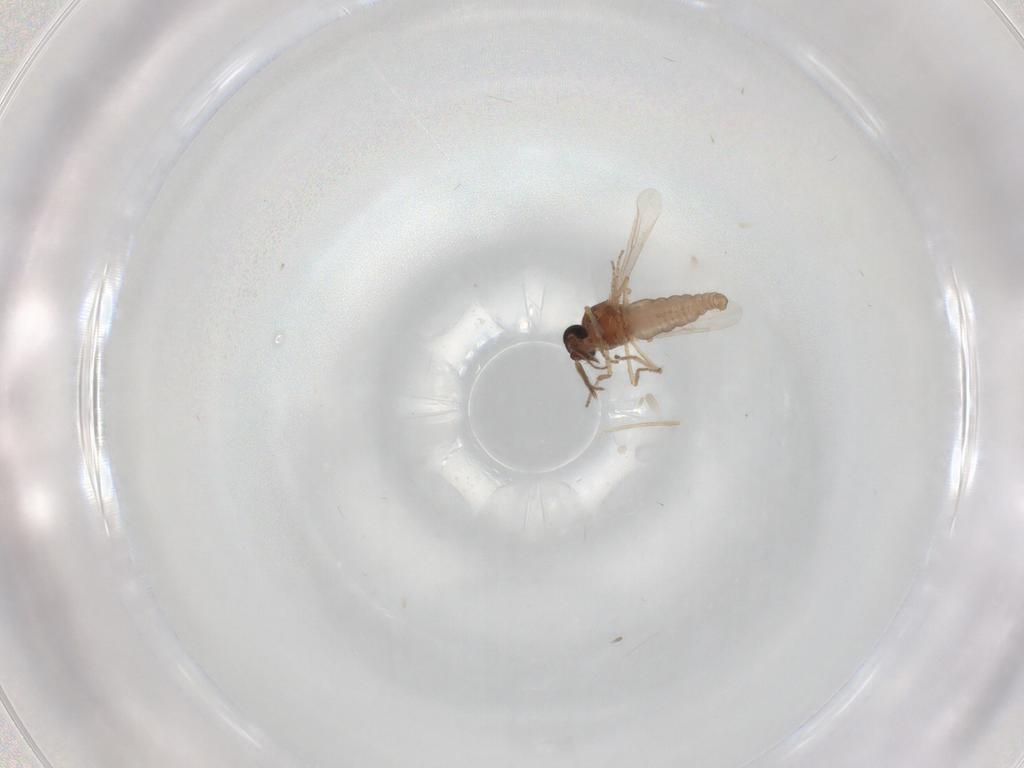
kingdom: Animalia
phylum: Arthropoda
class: Insecta
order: Diptera
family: Ceratopogonidae
